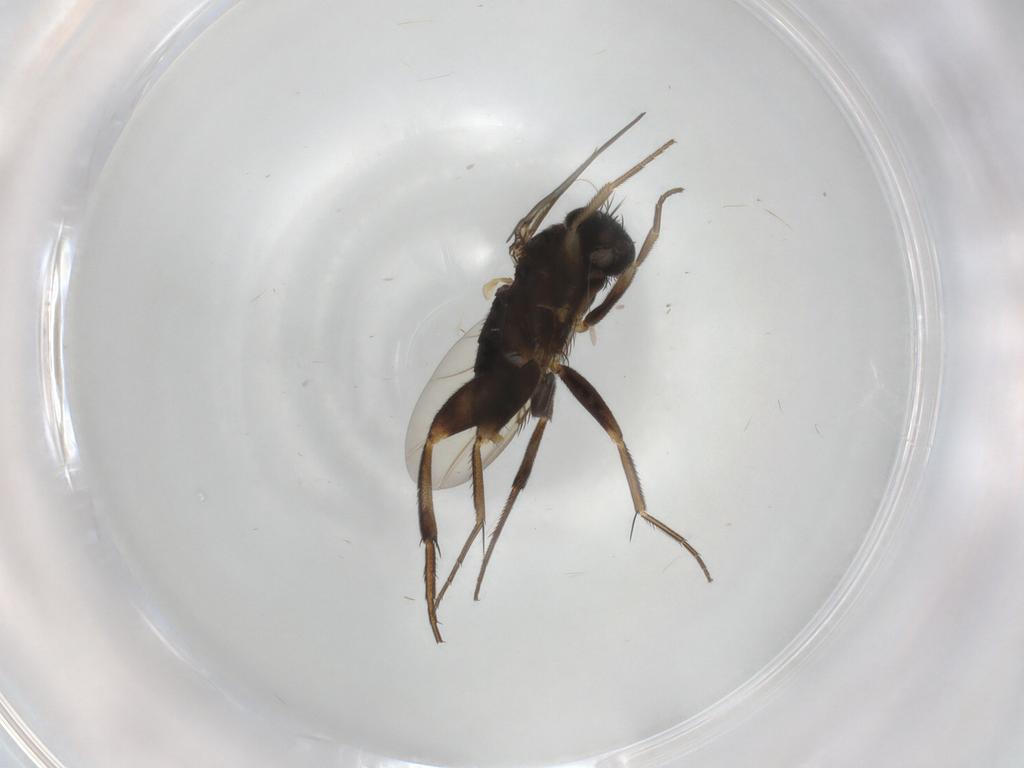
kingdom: Animalia
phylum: Arthropoda
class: Insecta
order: Diptera
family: Phoridae
